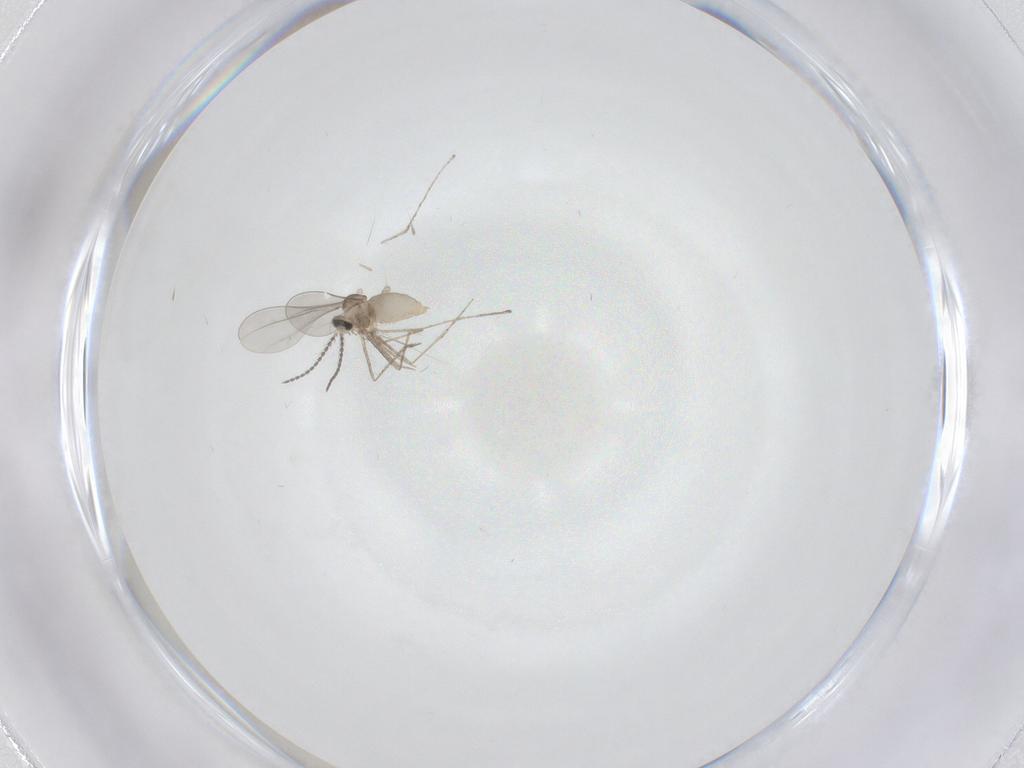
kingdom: Animalia
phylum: Arthropoda
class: Insecta
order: Diptera
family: Cecidomyiidae
